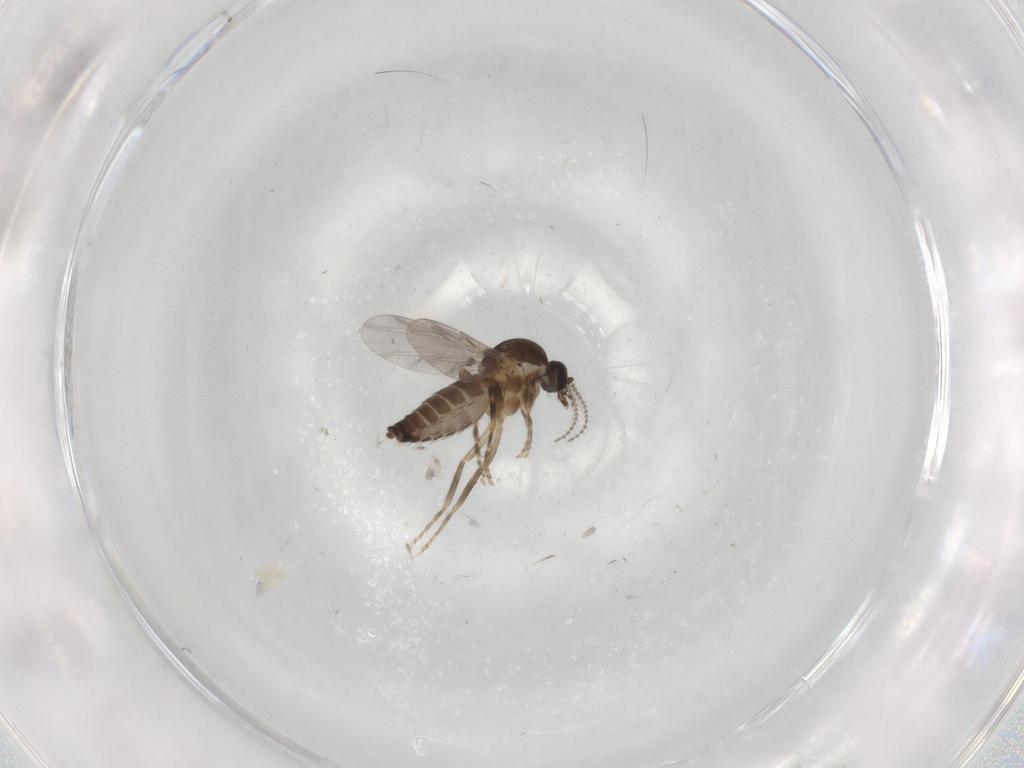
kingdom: Animalia
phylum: Arthropoda
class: Insecta
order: Diptera
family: Ceratopogonidae
